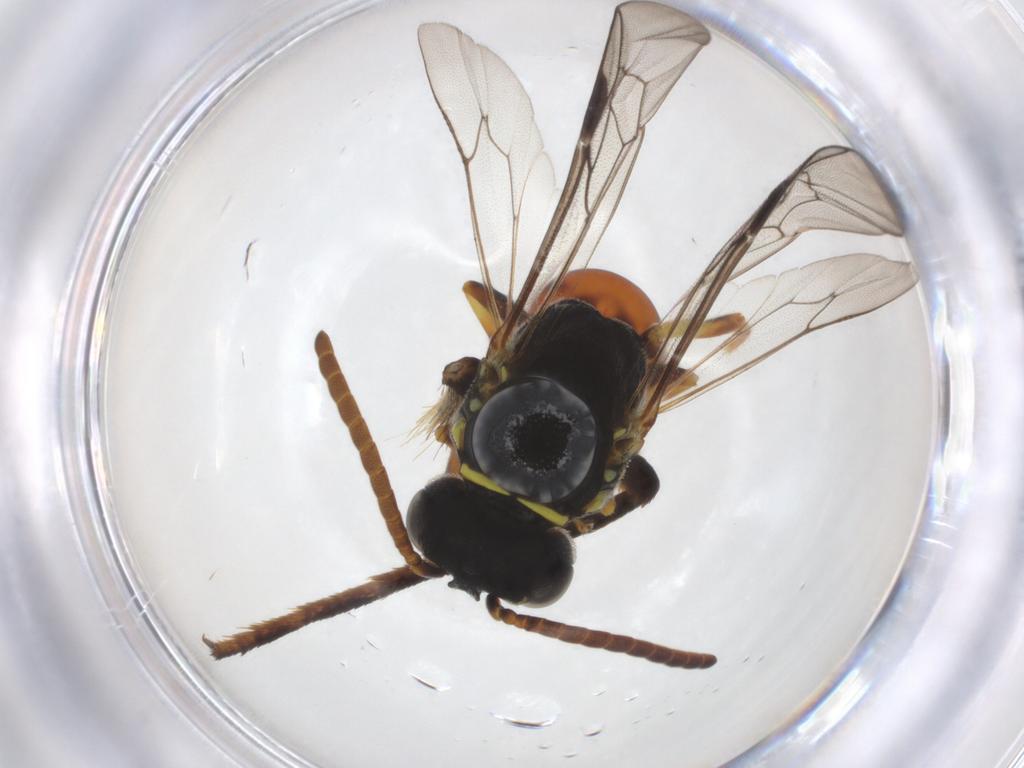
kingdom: Animalia
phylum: Arthropoda
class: Insecta
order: Hymenoptera
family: Colletidae
